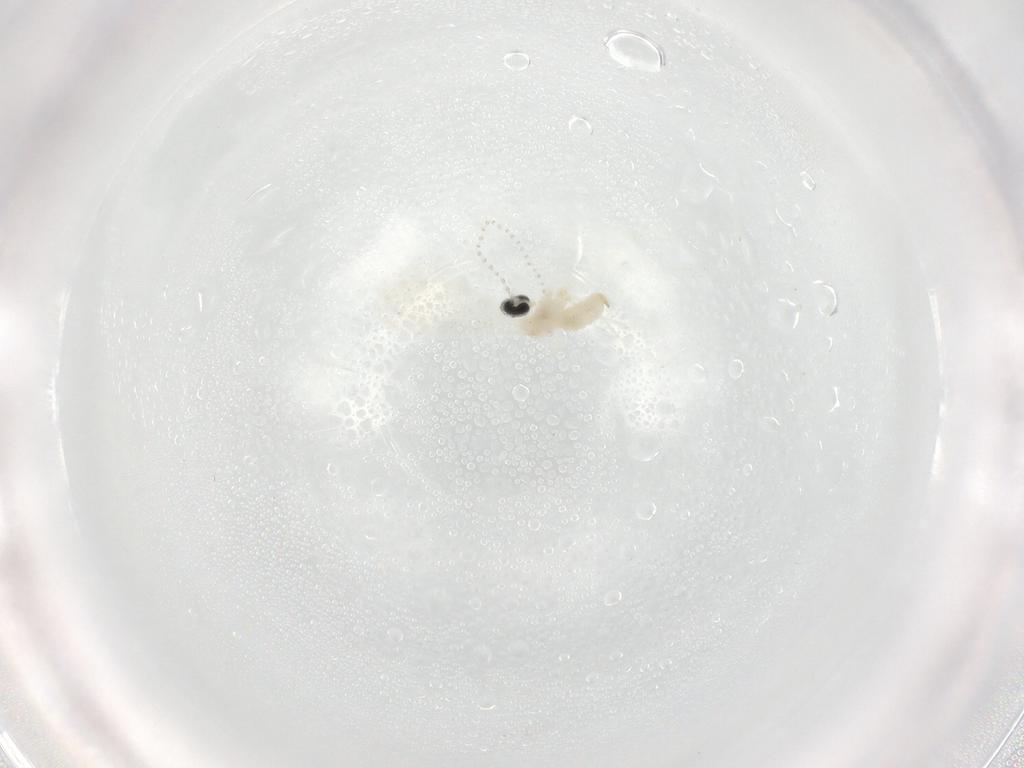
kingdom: Animalia
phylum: Arthropoda
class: Insecta
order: Diptera
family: Cecidomyiidae
